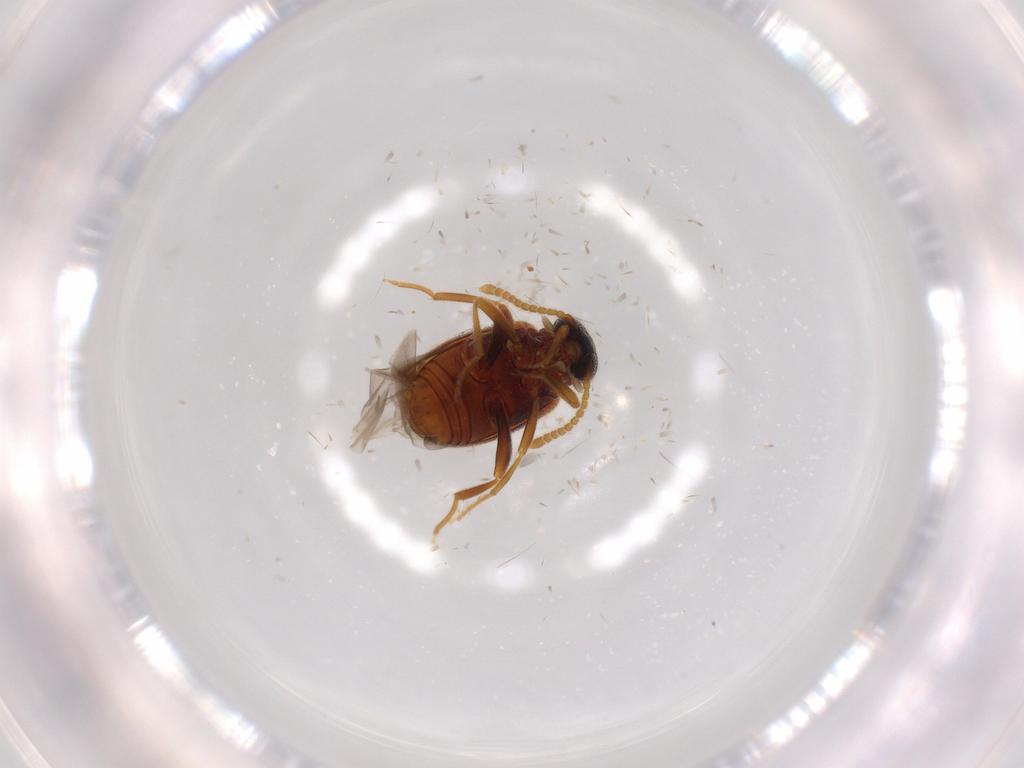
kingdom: Animalia
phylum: Arthropoda
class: Insecta
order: Coleoptera
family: Aderidae
